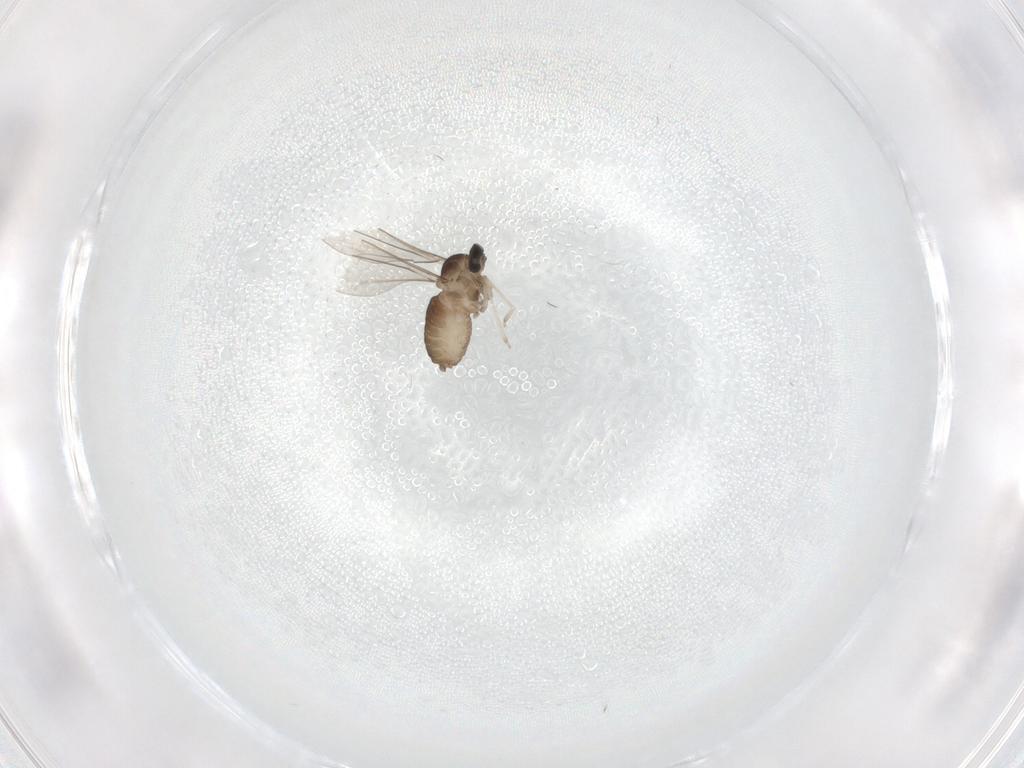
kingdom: Animalia
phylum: Arthropoda
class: Insecta
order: Diptera
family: Cecidomyiidae
